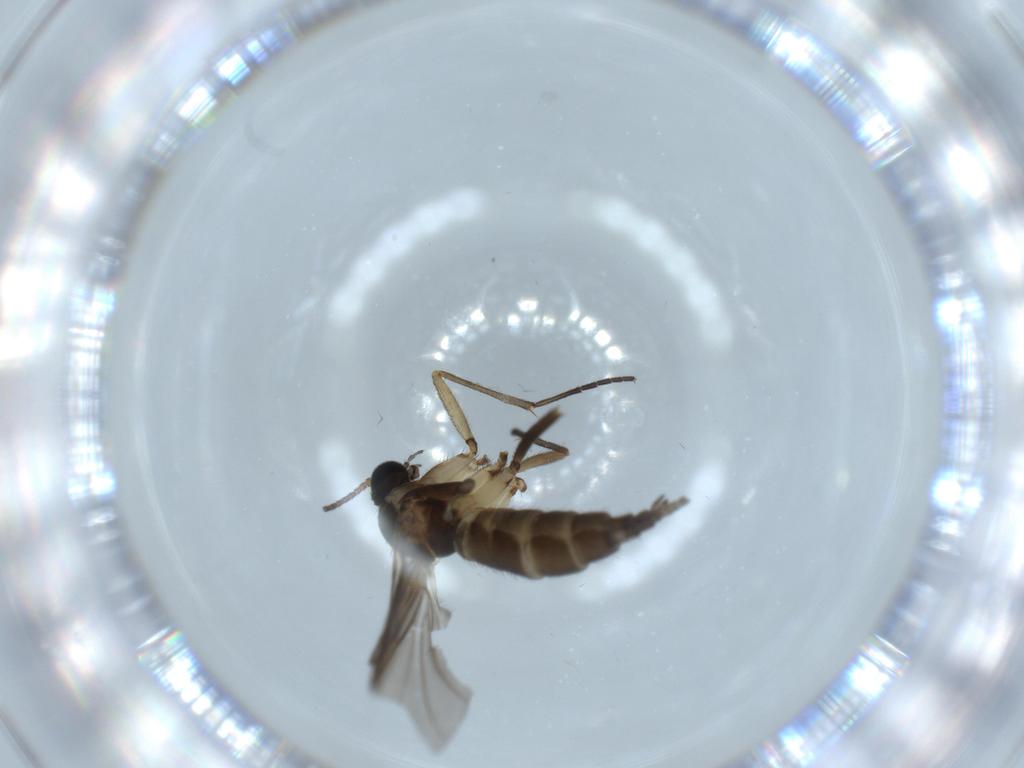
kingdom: Animalia
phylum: Arthropoda
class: Insecta
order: Diptera
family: Sciaridae
